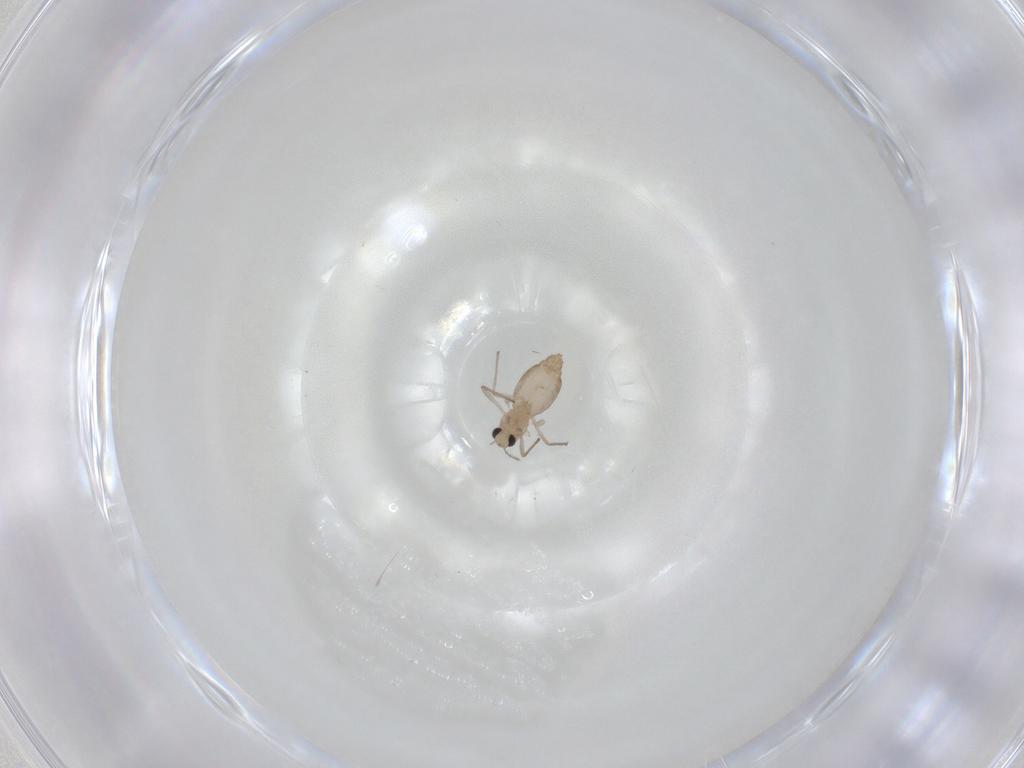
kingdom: Animalia
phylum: Arthropoda
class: Insecta
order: Diptera
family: Chironomidae
